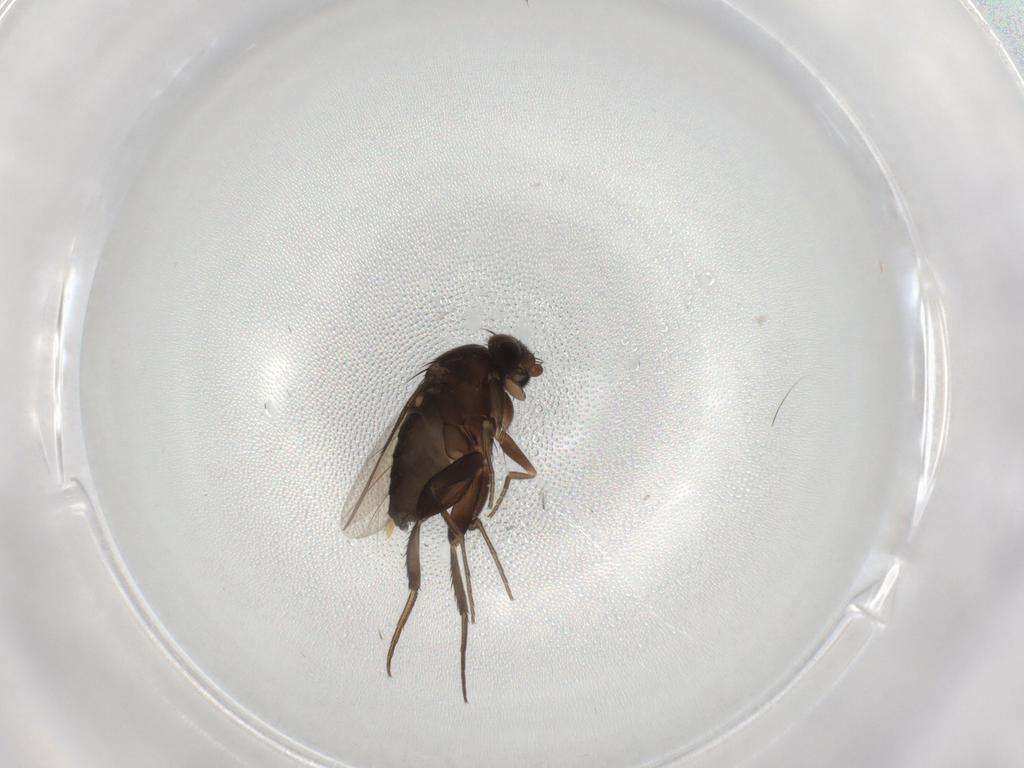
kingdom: Animalia
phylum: Arthropoda
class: Insecta
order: Diptera
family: Phoridae
